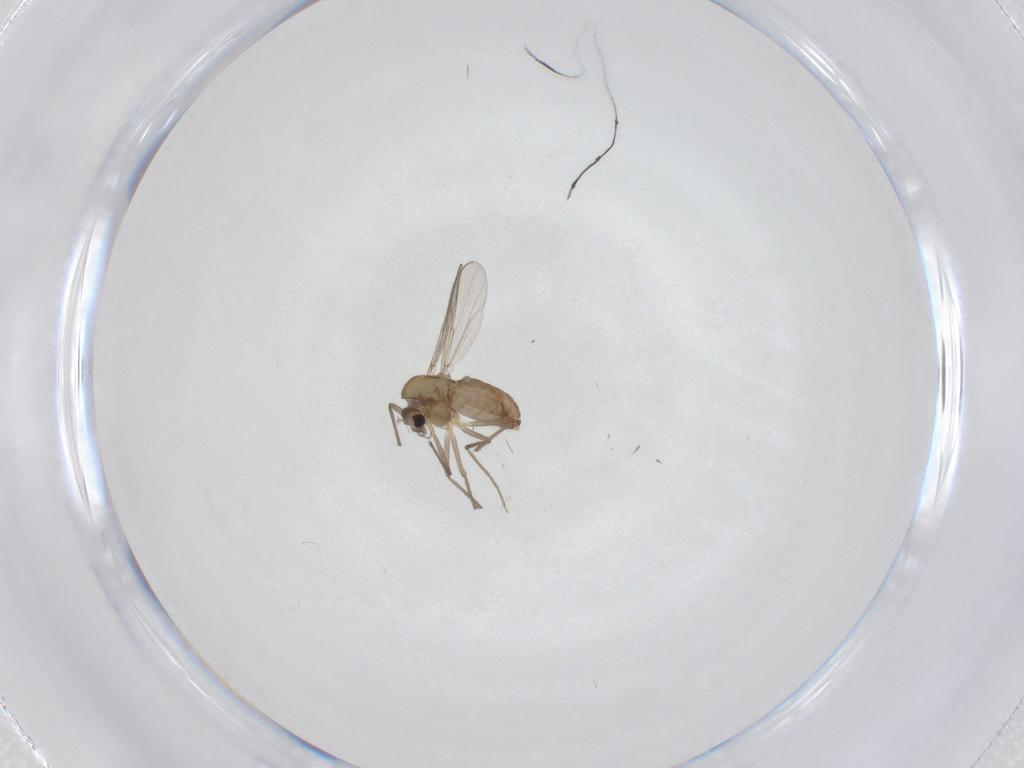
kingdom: Animalia
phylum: Arthropoda
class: Insecta
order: Diptera
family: Chironomidae
